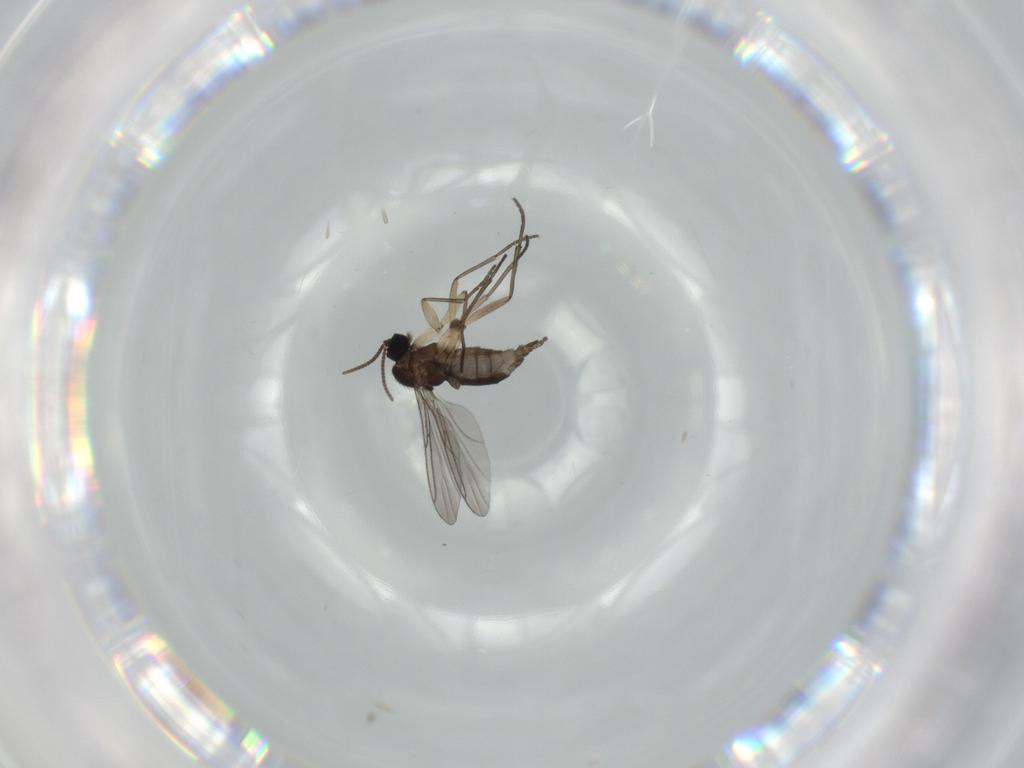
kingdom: Animalia
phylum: Arthropoda
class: Insecta
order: Diptera
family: Sciaridae
